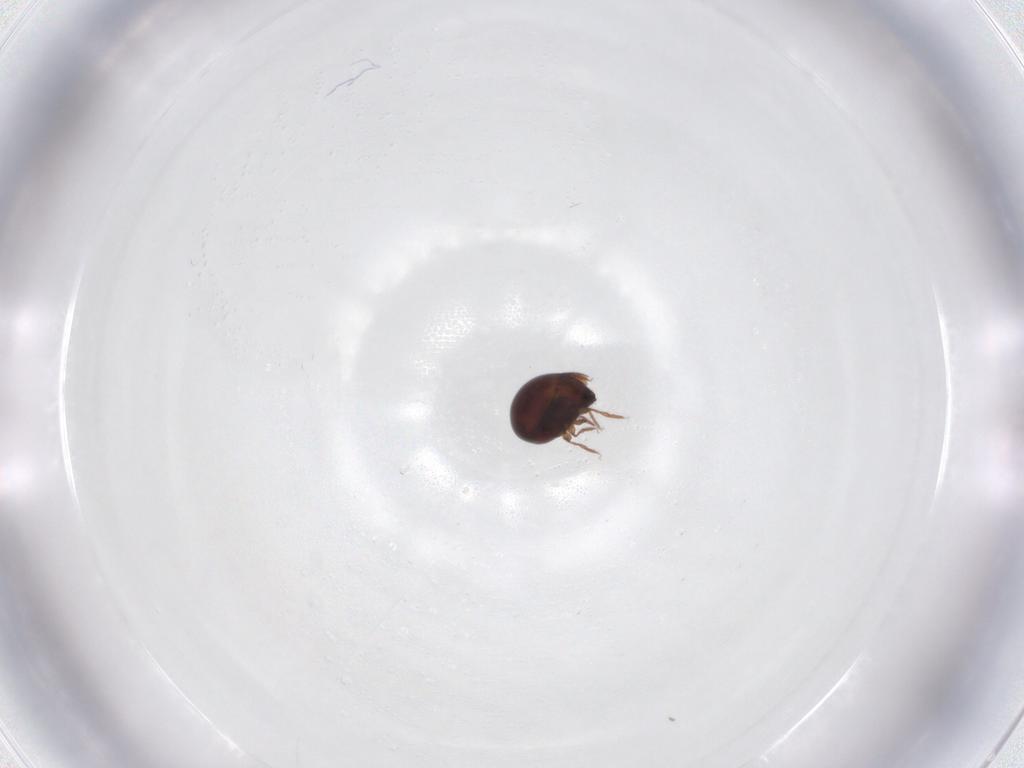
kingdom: Animalia
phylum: Arthropoda
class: Arachnida
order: Sarcoptiformes
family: Galumnidae
